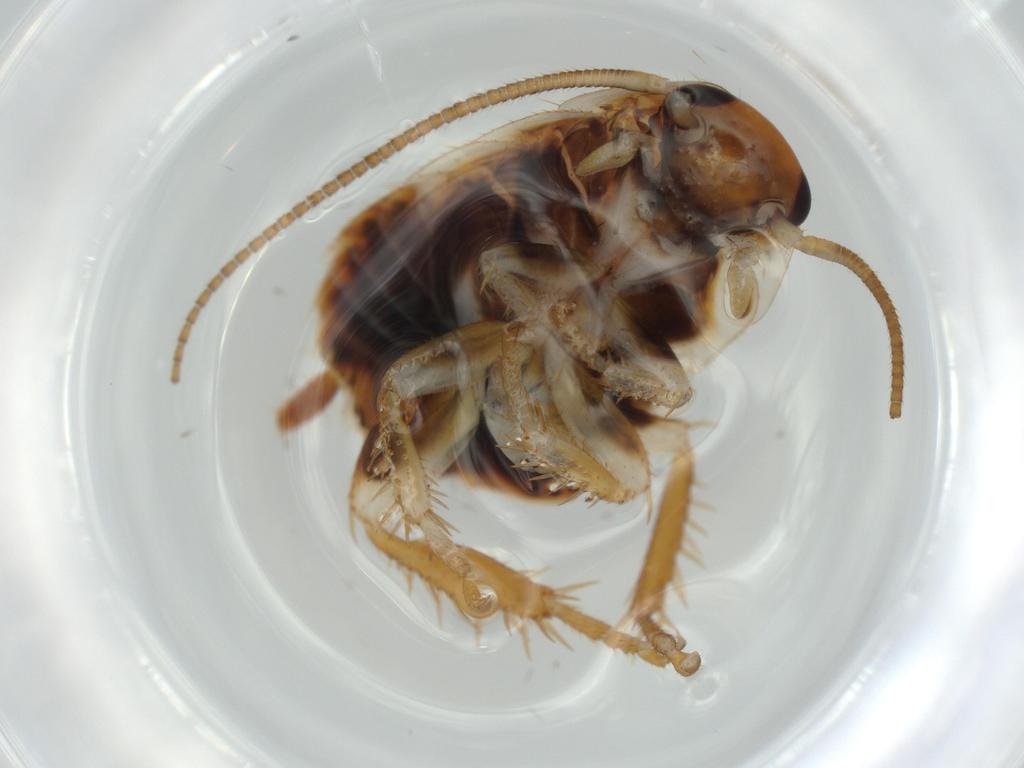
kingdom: Animalia
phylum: Arthropoda
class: Insecta
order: Blattodea
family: Ectobiidae
